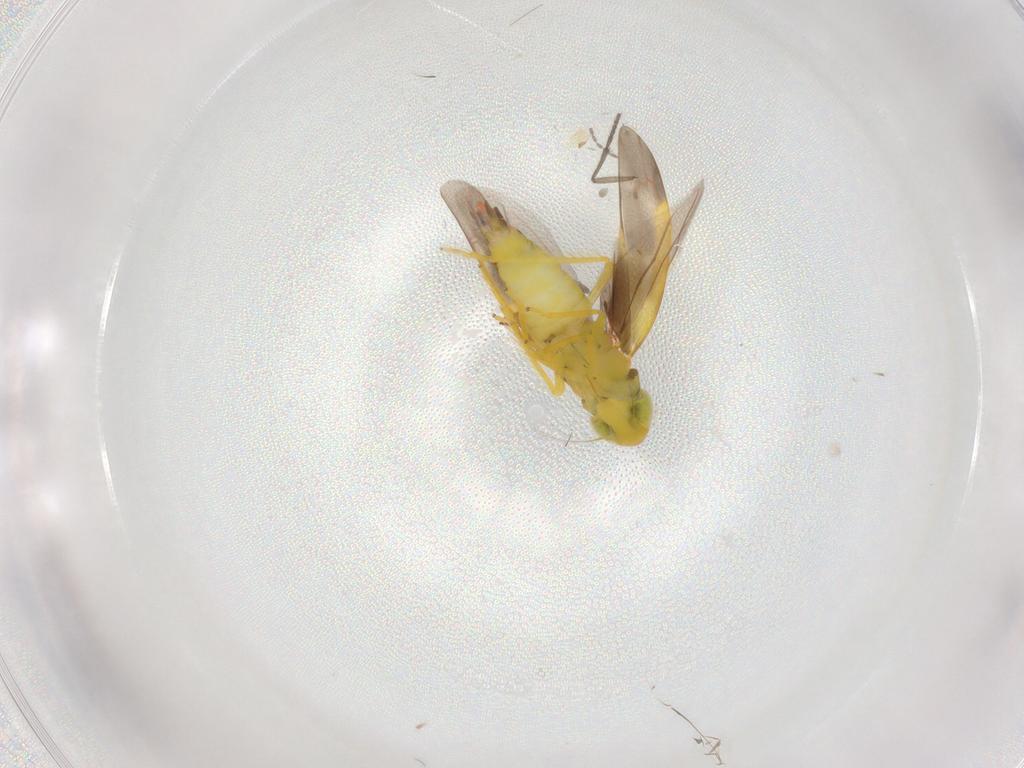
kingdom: Animalia
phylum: Arthropoda
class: Insecta
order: Hemiptera
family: Cicadellidae
